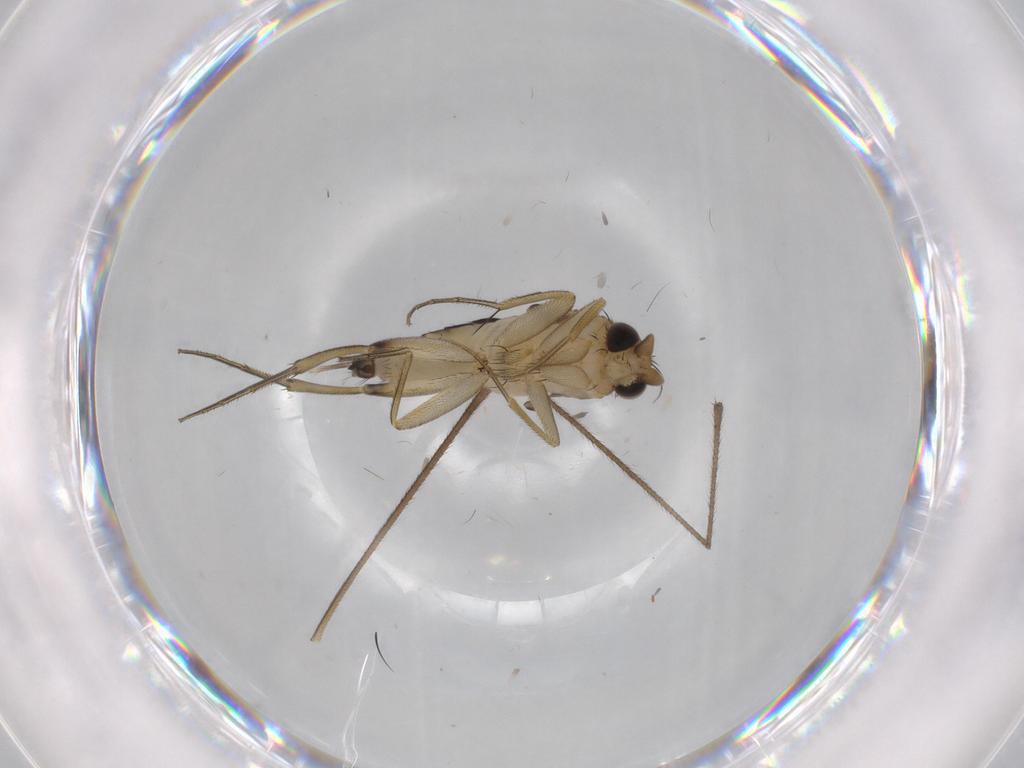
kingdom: Animalia
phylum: Arthropoda
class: Insecta
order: Diptera
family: Phoridae
